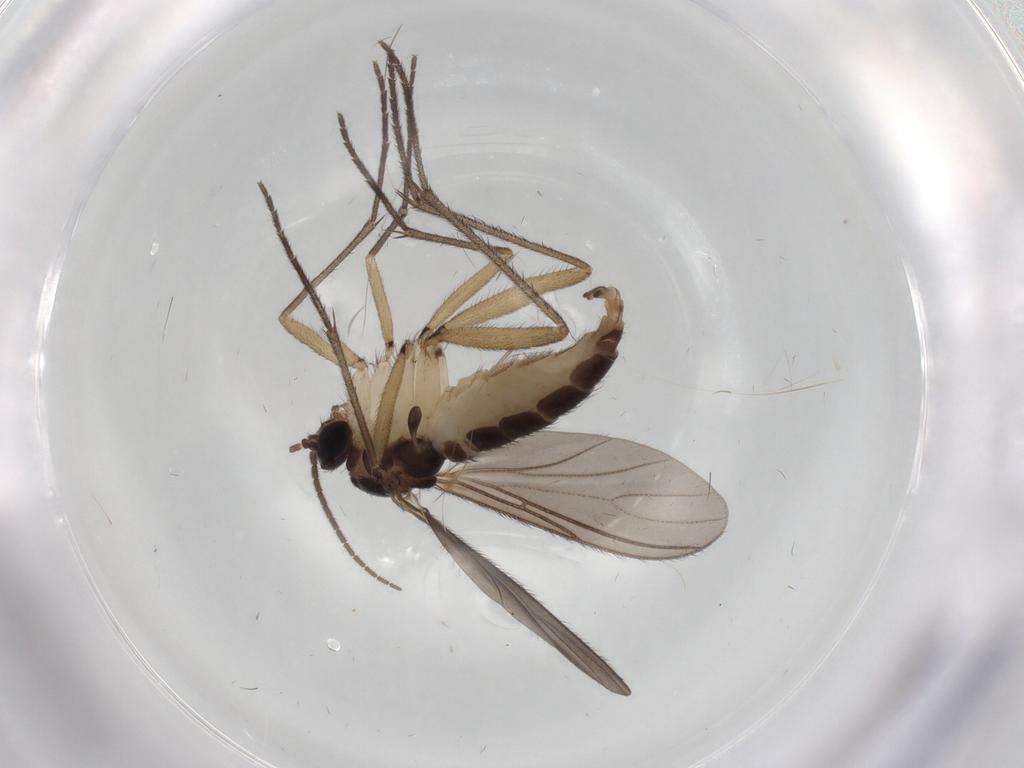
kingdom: Animalia
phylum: Arthropoda
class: Insecta
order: Diptera
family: Sciaridae
